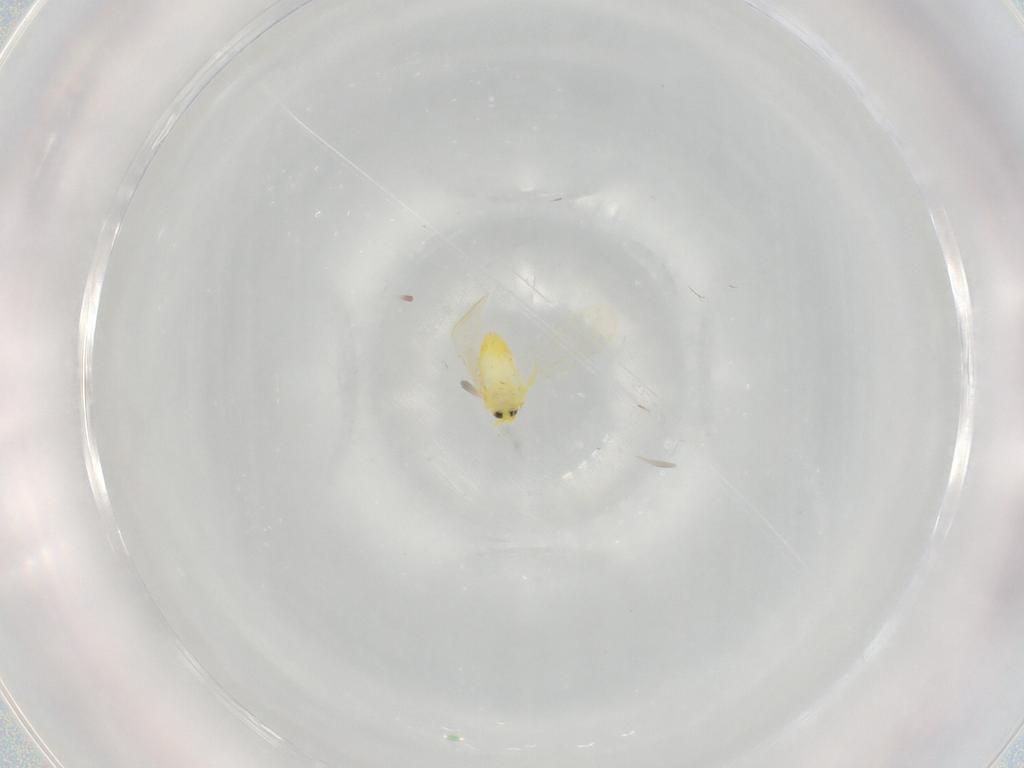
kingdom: Animalia
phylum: Arthropoda
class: Insecta
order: Hemiptera
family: Aleyrodidae
